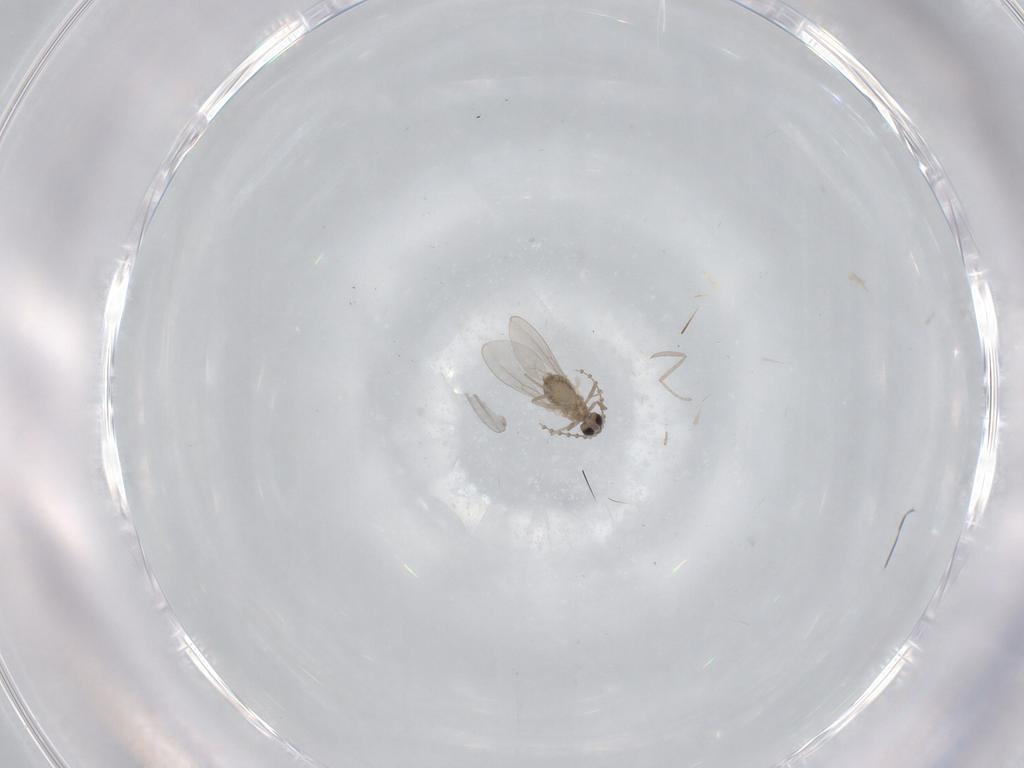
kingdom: Animalia
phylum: Arthropoda
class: Insecta
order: Diptera
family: Cecidomyiidae
